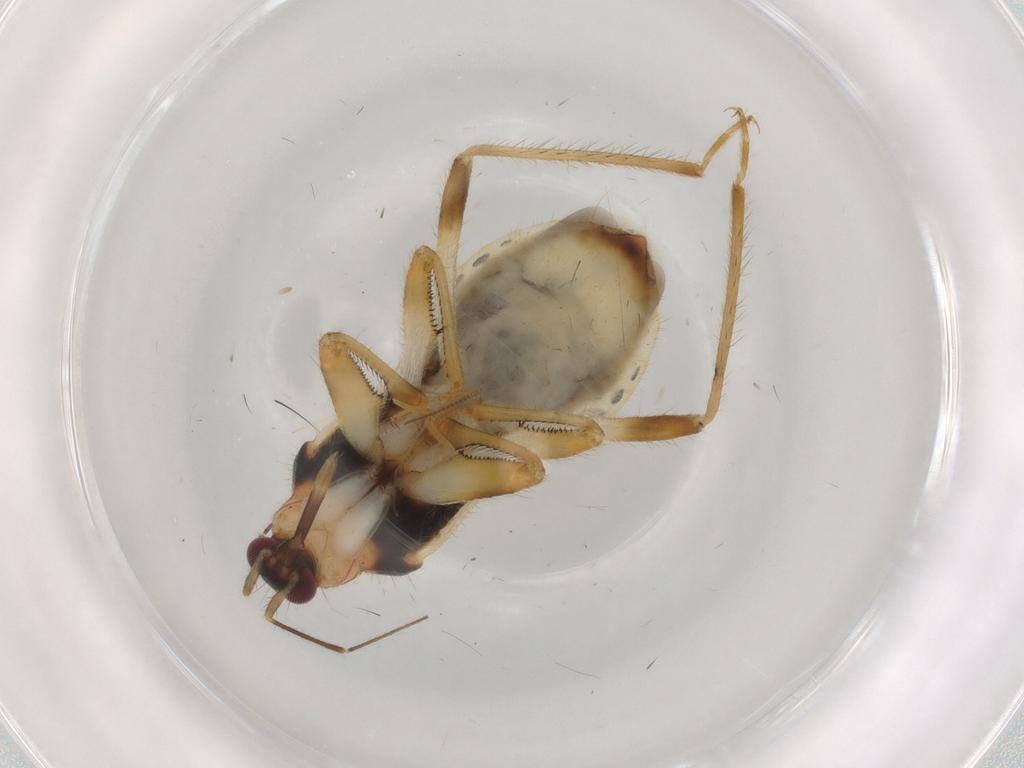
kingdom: Animalia
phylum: Arthropoda
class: Insecta
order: Hemiptera
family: Nabidae
